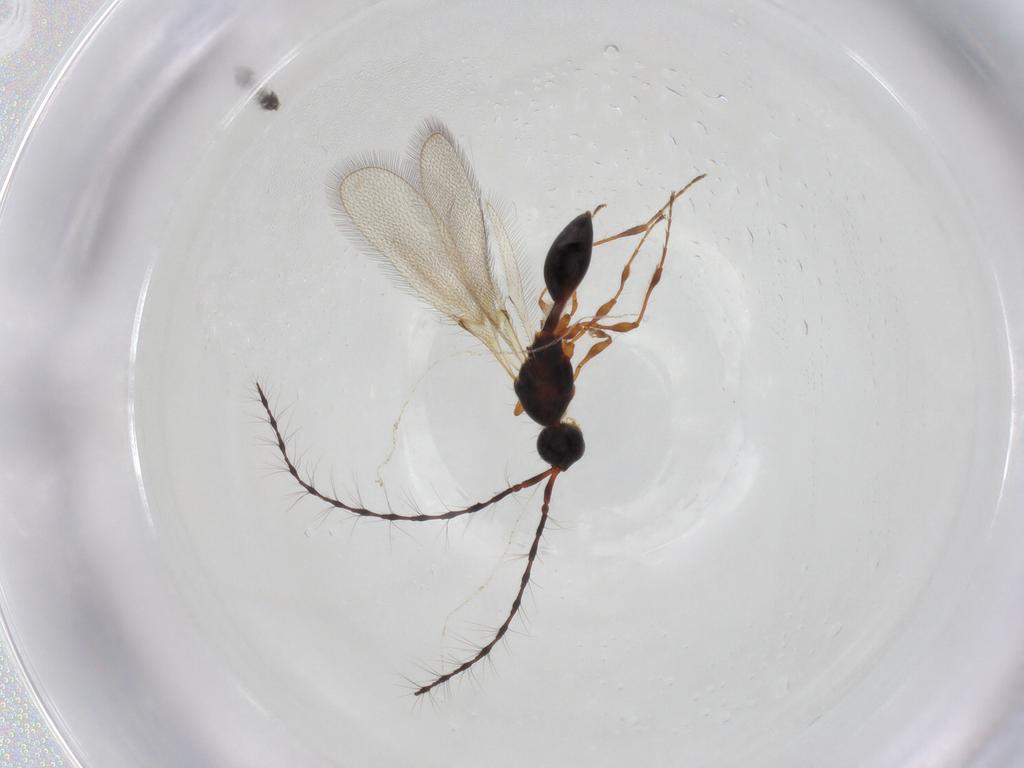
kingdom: Animalia
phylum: Arthropoda
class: Insecta
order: Hymenoptera
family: Diapriidae
